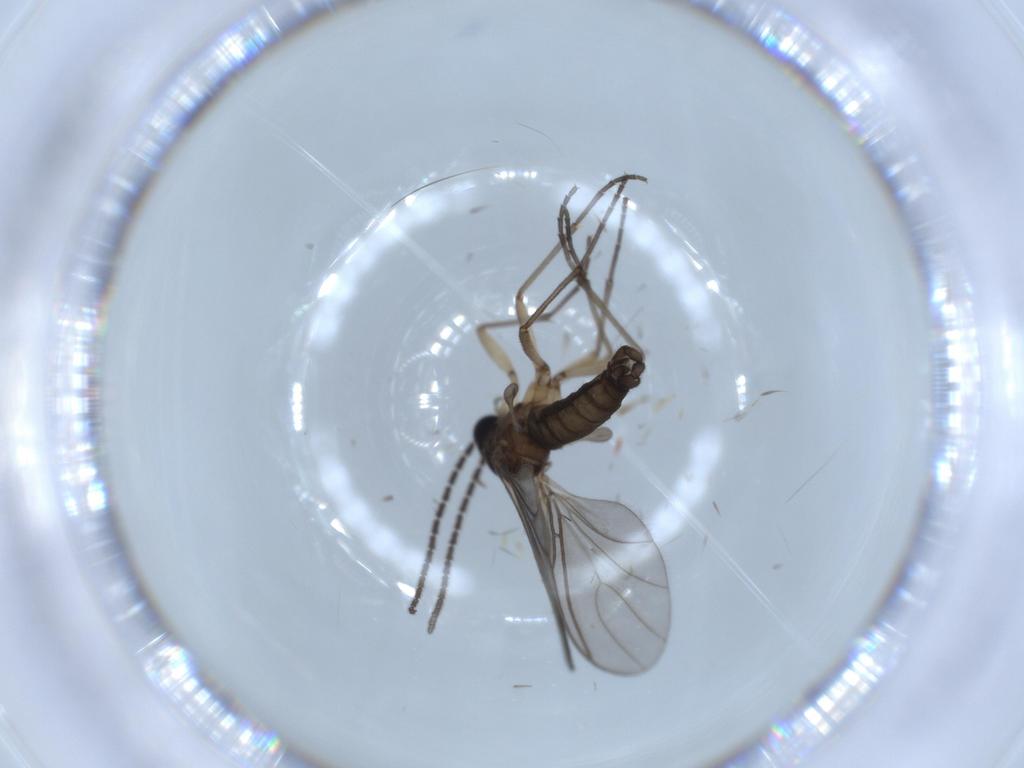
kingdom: Animalia
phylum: Arthropoda
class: Insecta
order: Diptera
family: Sciaridae
